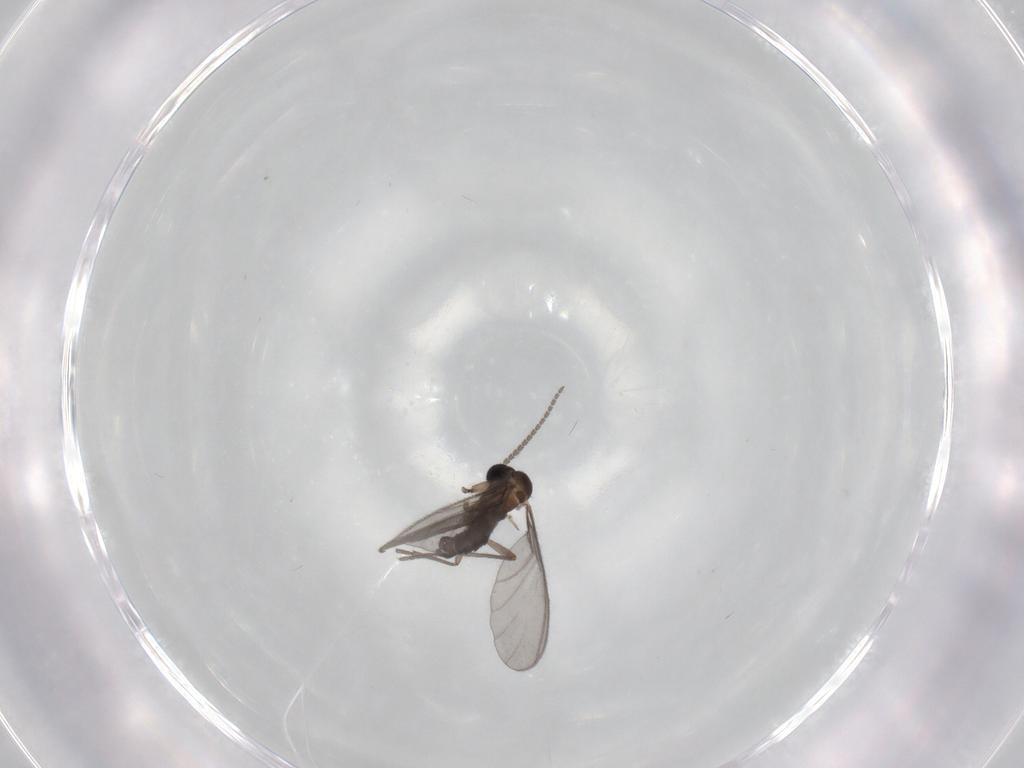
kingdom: Animalia
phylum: Arthropoda
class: Insecta
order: Diptera
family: Sciaridae
